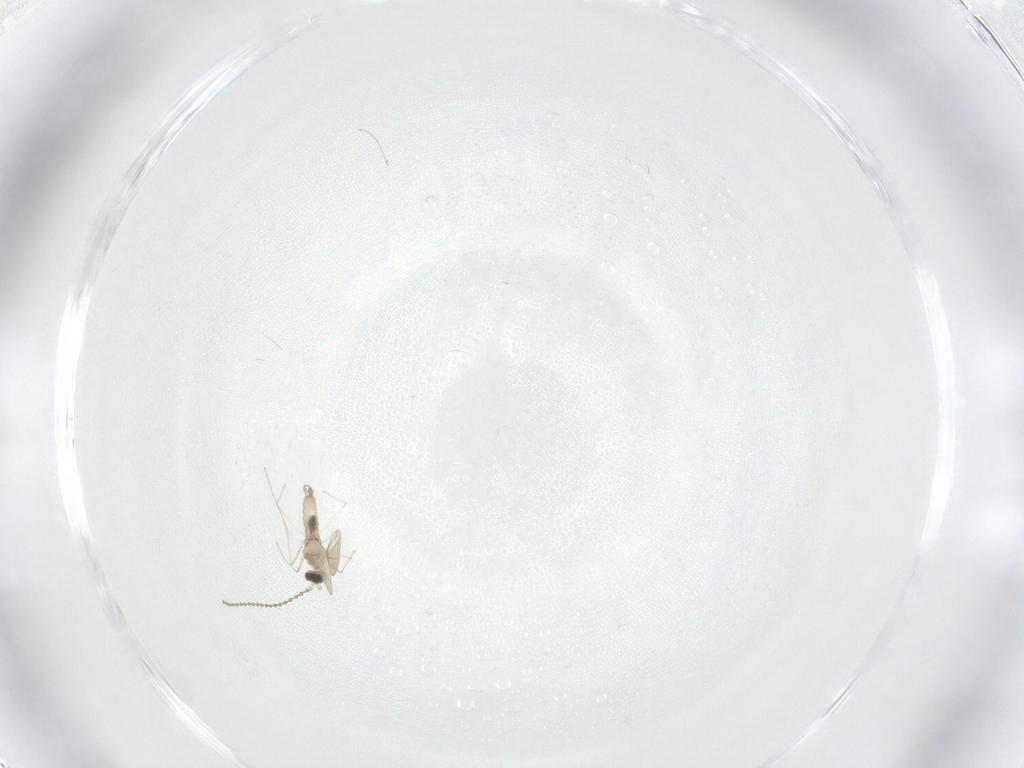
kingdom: Animalia
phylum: Arthropoda
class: Insecta
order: Diptera
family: Cecidomyiidae
